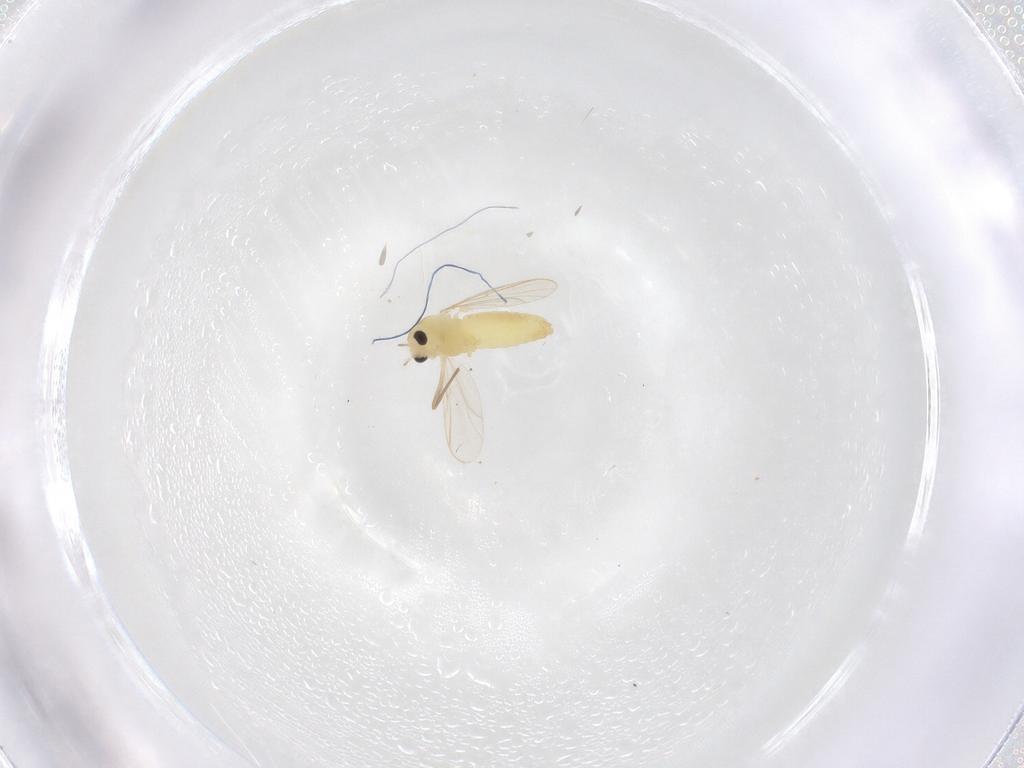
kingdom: Animalia
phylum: Arthropoda
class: Insecta
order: Diptera
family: Chironomidae
